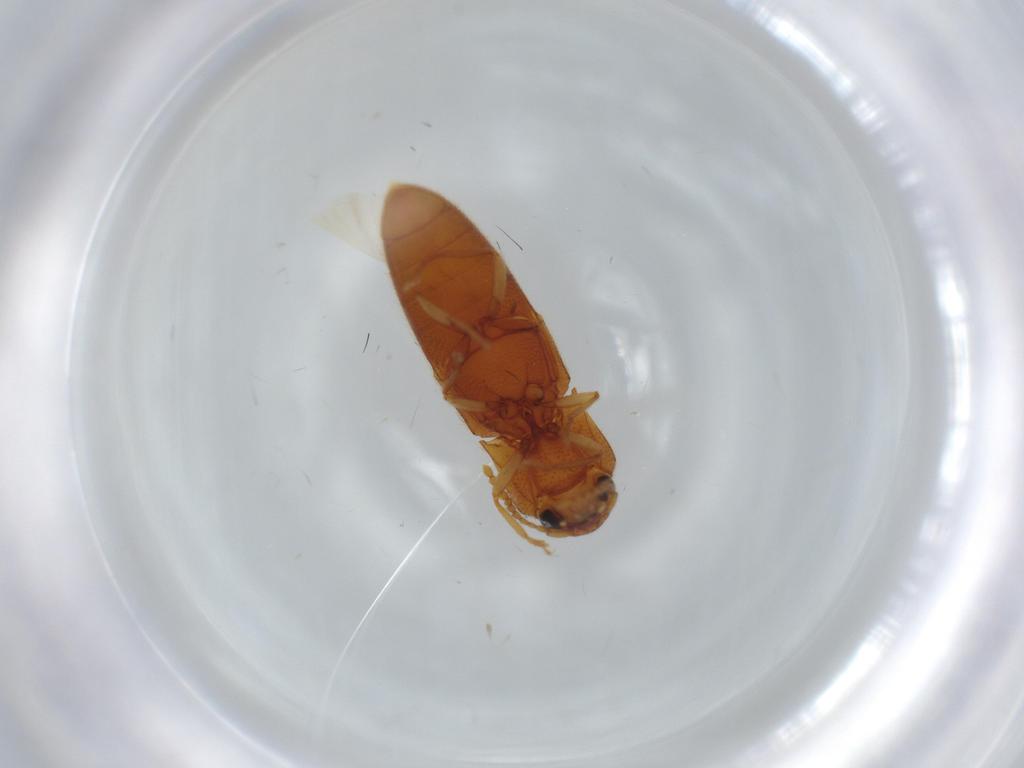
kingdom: Animalia
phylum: Arthropoda
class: Insecta
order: Coleoptera
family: Elateridae
